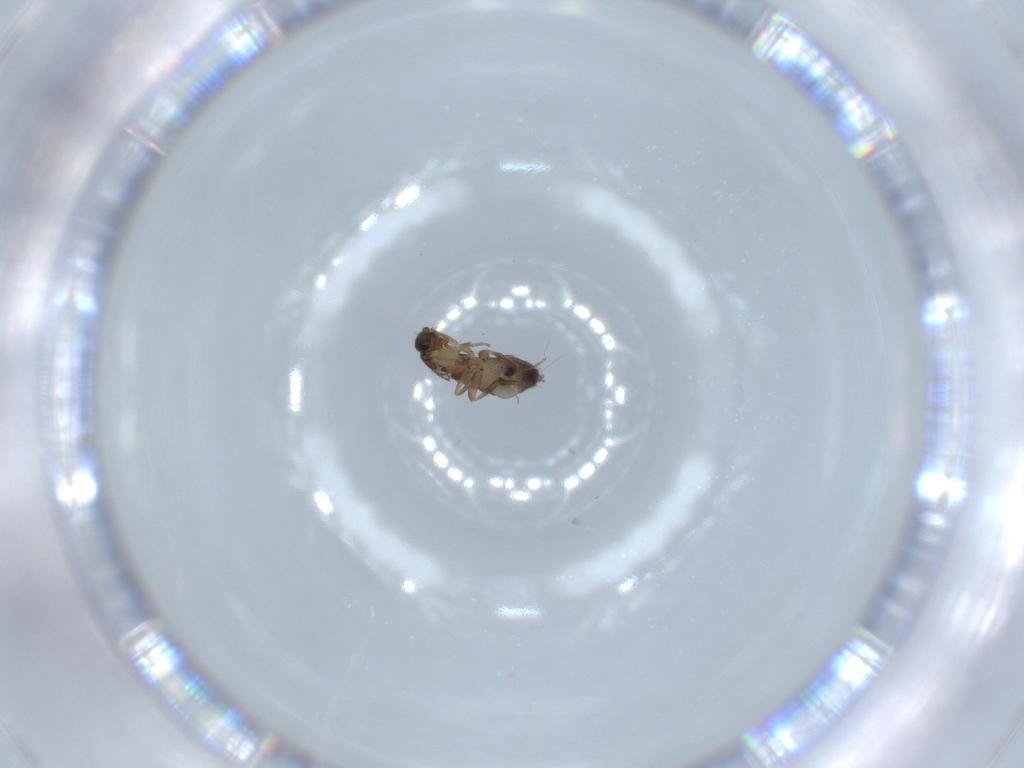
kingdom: Animalia
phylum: Arthropoda
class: Insecta
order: Diptera
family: Phoridae
